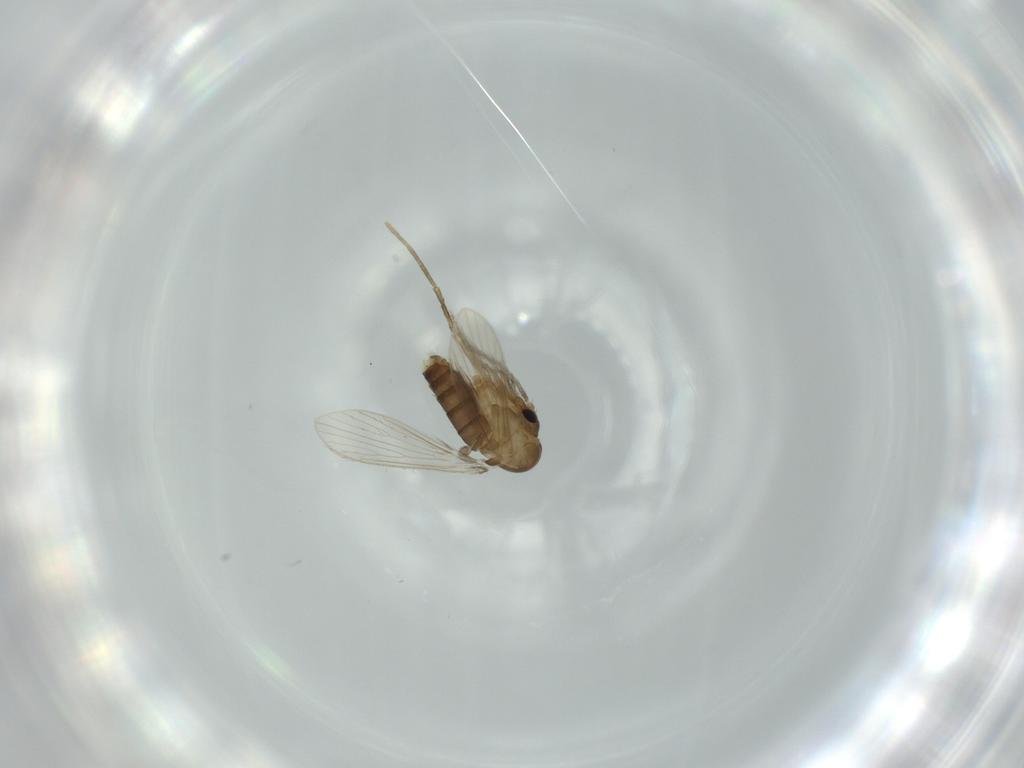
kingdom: Animalia
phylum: Arthropoda
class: Insecta
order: Diptera
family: Psychodidae
